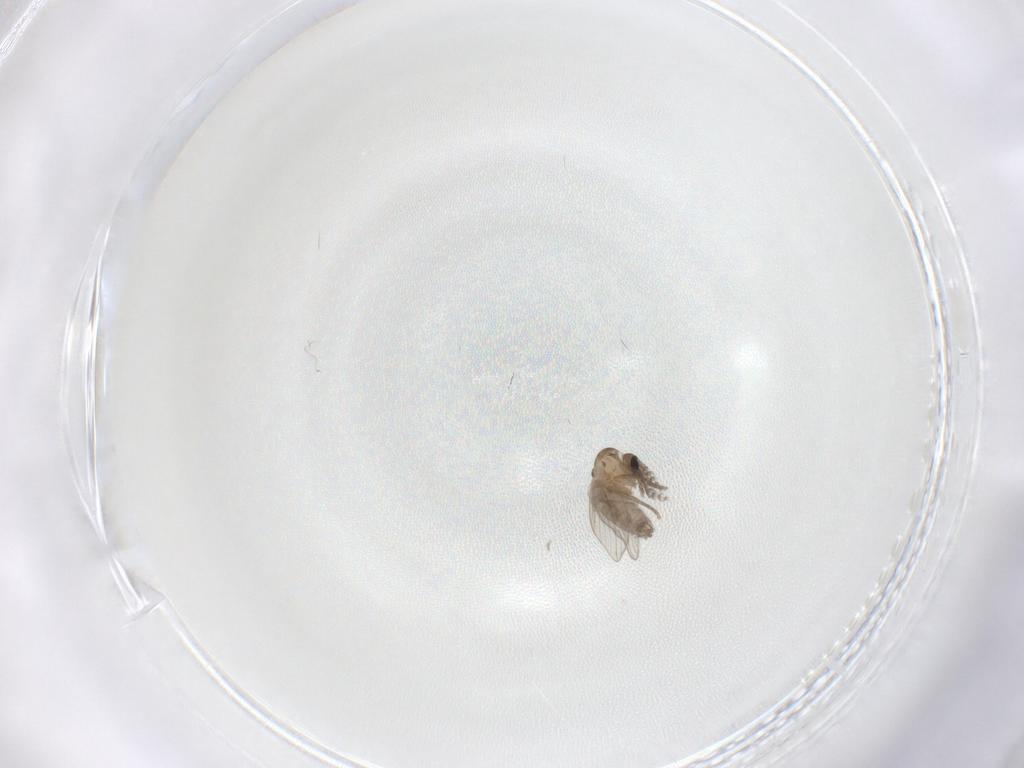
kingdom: Animalia
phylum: Arthropoda
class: Insecta
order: Diptera
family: Psychodidae
